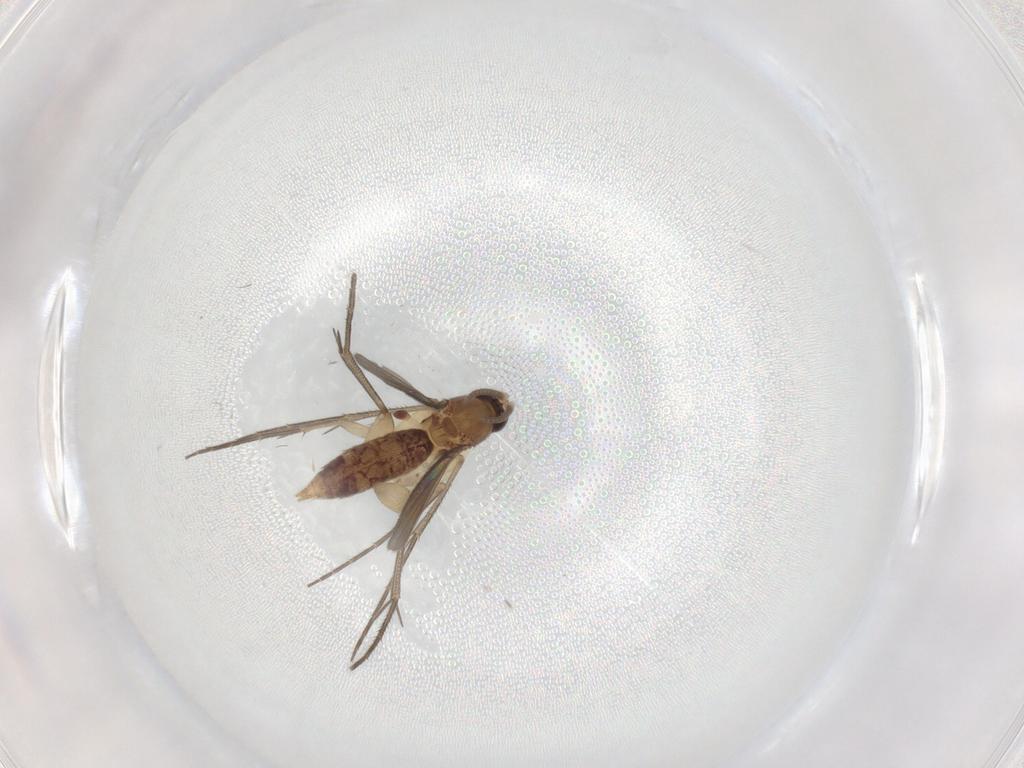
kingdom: Animalia
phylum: Arthropoda
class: Insecta
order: Diptera
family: Mycetophilidae
